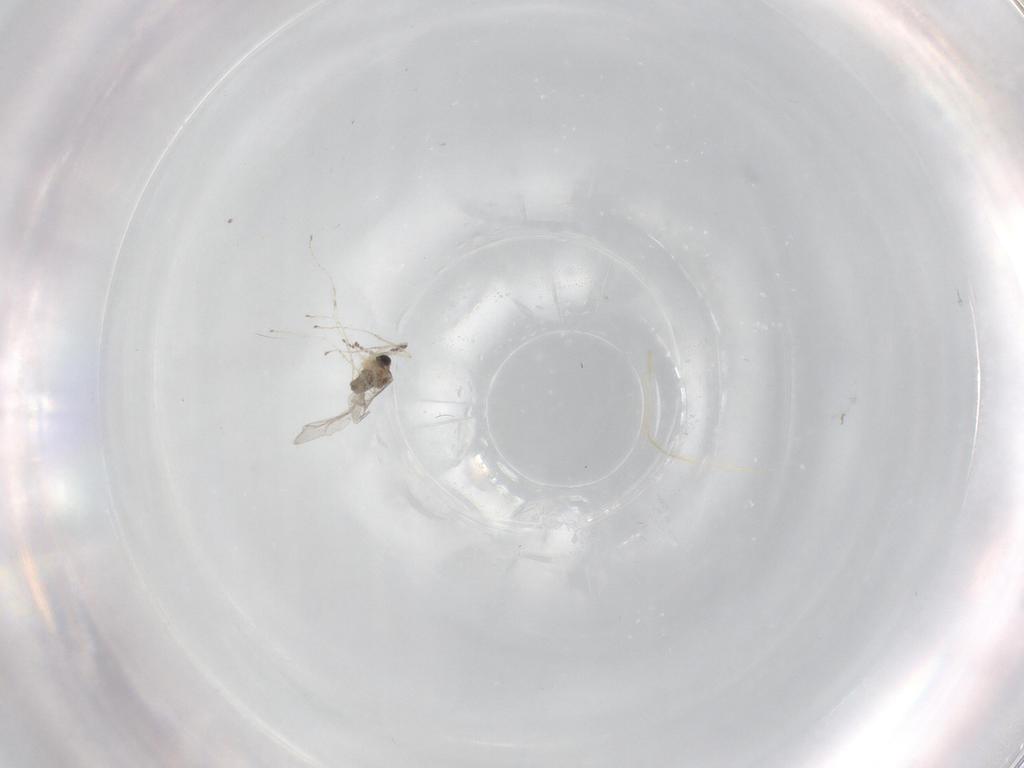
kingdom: Animalia
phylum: Arthropoda
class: Insecta
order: Diptera
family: Cecidomyiidae
